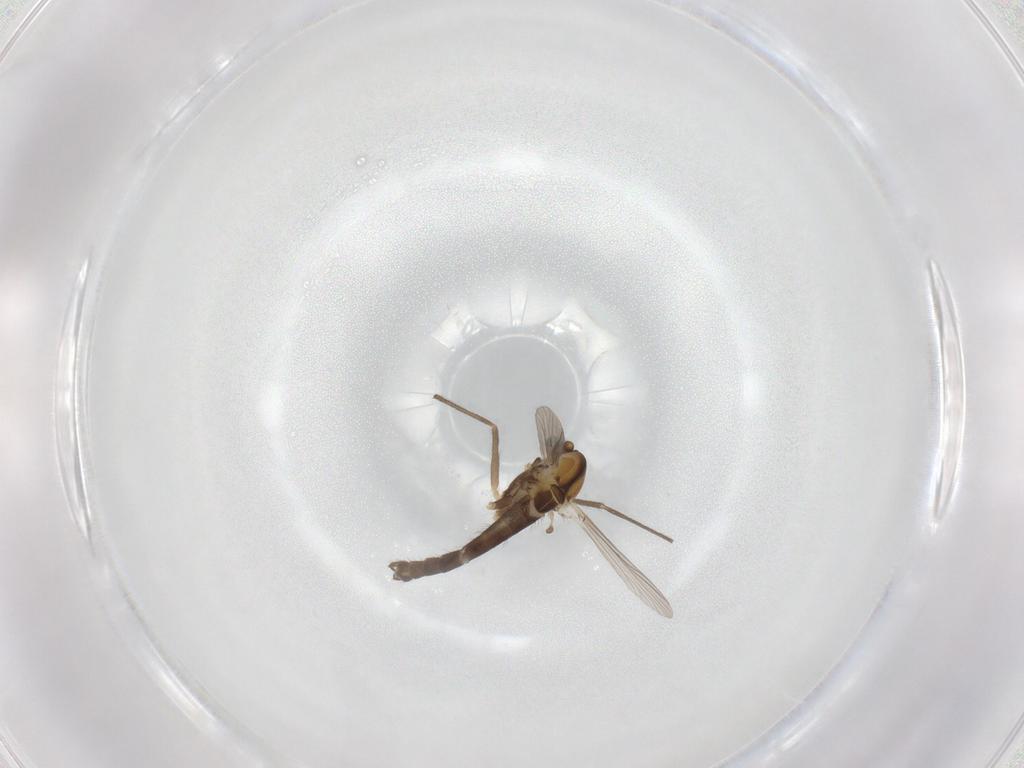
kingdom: Animalia
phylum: Arthropoda
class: Insecta
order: Diptera
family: Chironomidae
